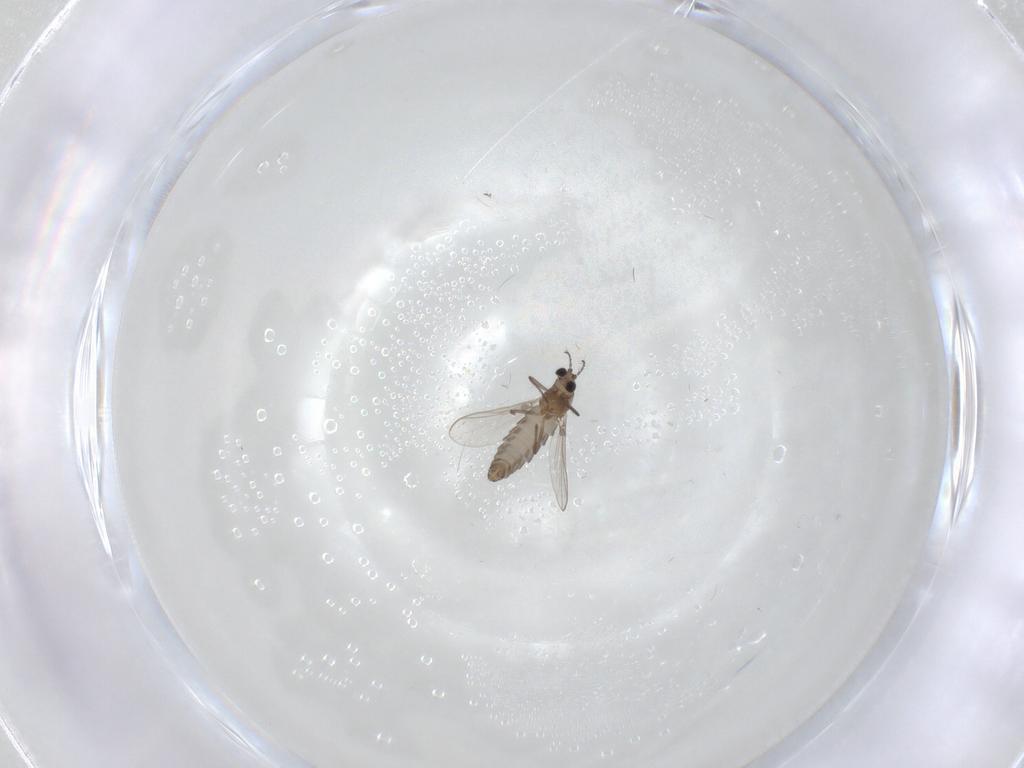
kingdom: Animalia
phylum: Arthropoda
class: Insecta
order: Diptera
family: Chironomidae
